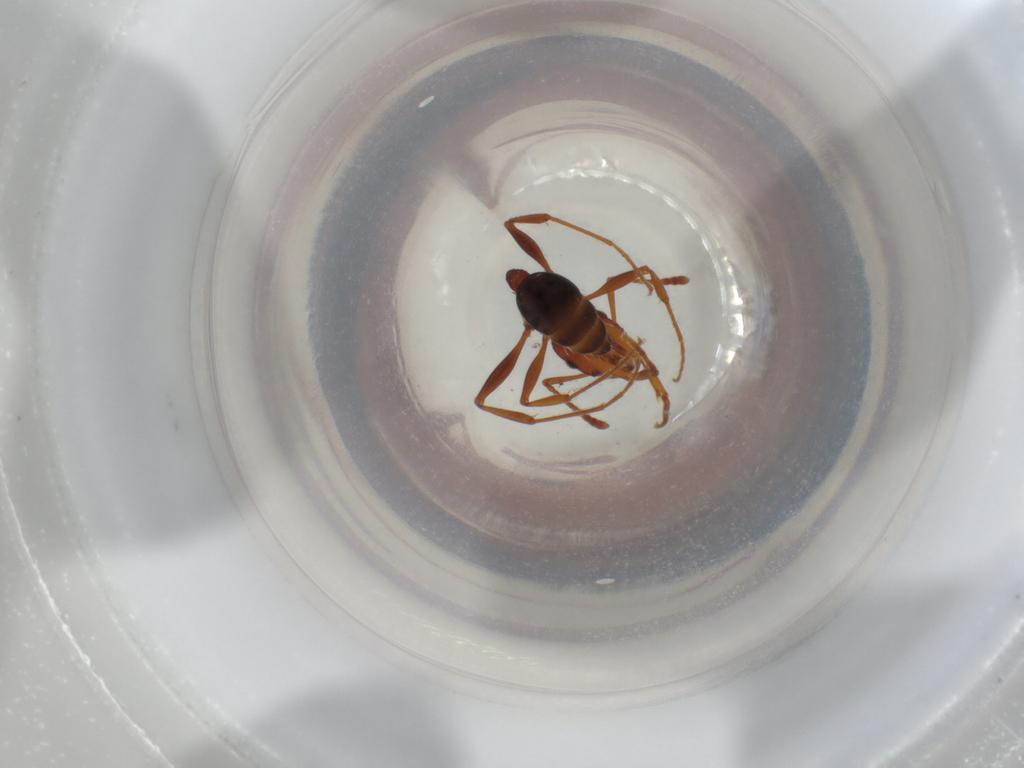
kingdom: Animalia
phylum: Arthropoda
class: Insecta
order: Hymenoptera
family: Formicidae
